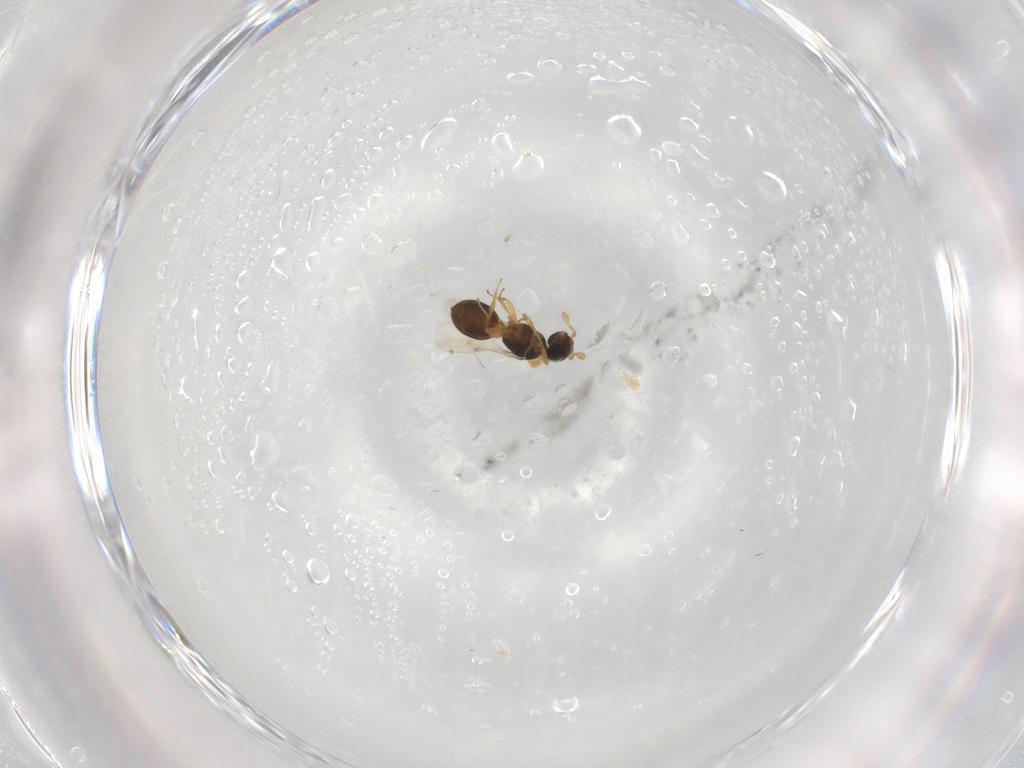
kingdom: Animalia
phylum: Arthropoda
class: Insecta
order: Hymenoptera
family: Scelionidae
